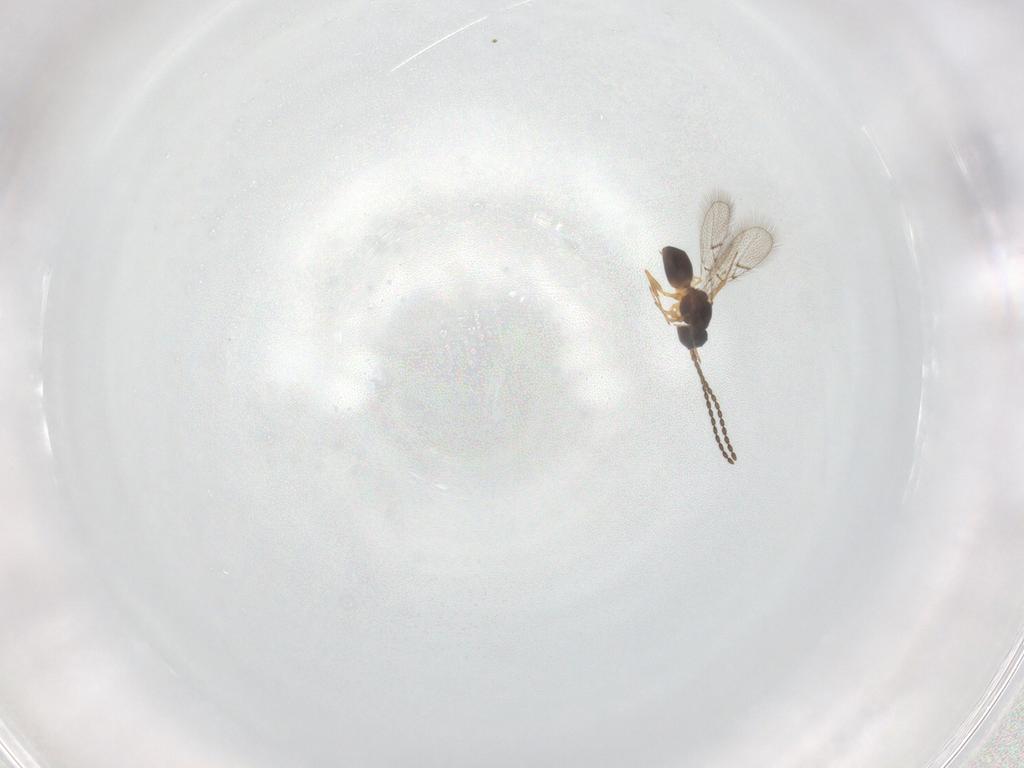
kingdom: Animalia
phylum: Arthropoda
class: Insecta
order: Hymenoptera
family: Figitidae
